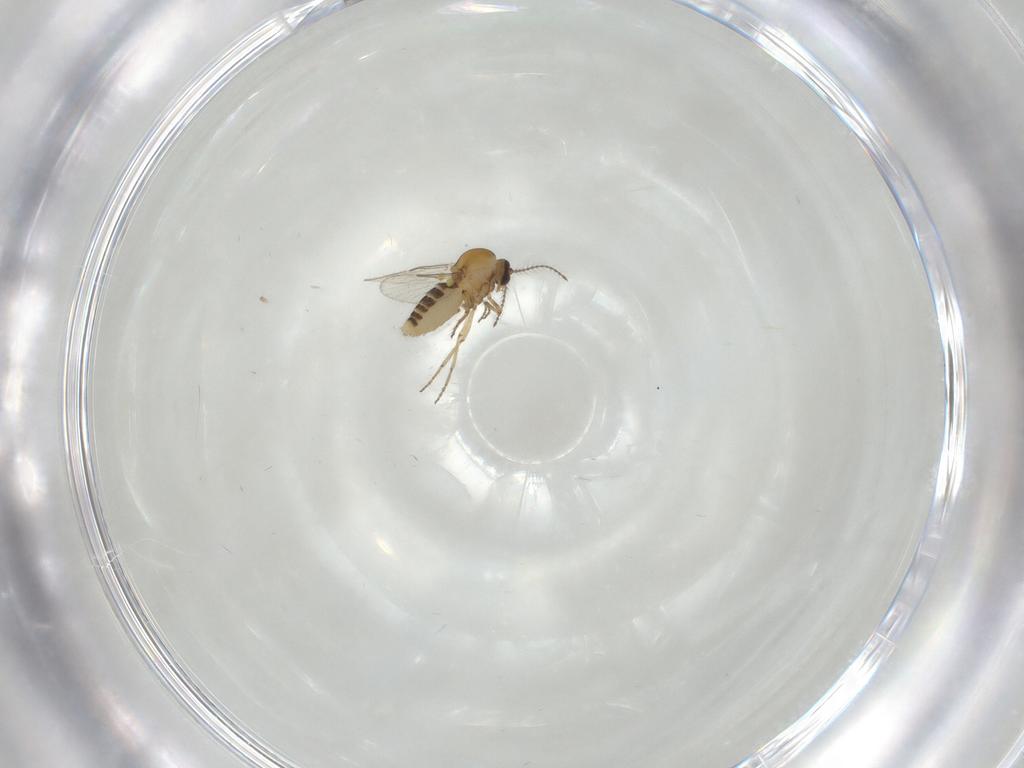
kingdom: Animalia
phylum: Arthropoda
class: Insecta
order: Diptera
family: Ceratopogonidae
